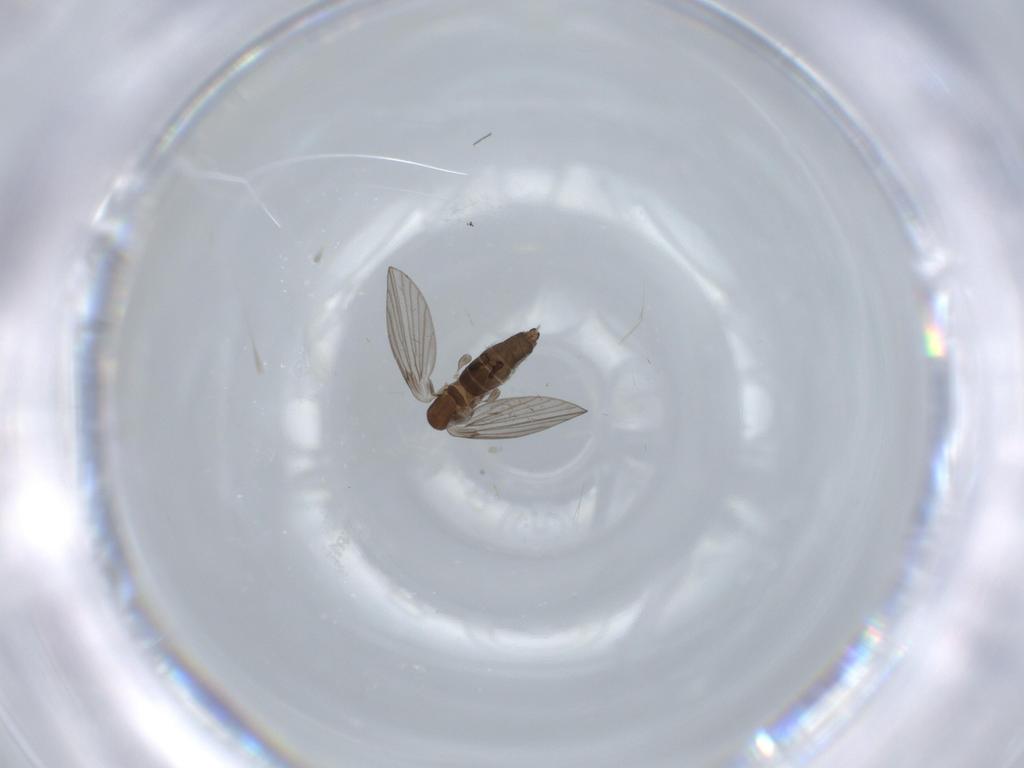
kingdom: Animalia
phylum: Arthropoda
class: Insecta
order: Diptera
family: Psychodidae
